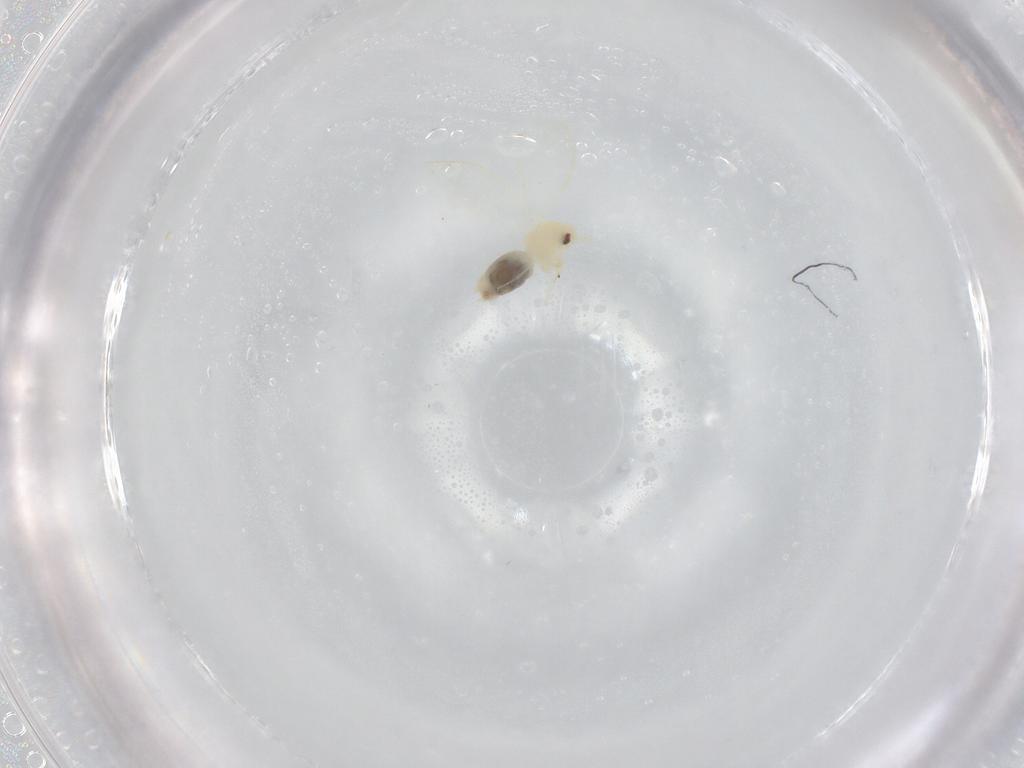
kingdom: Animalia
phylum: Arthropoda
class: Insecta
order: Hemiptera
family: Aleyrodidae
